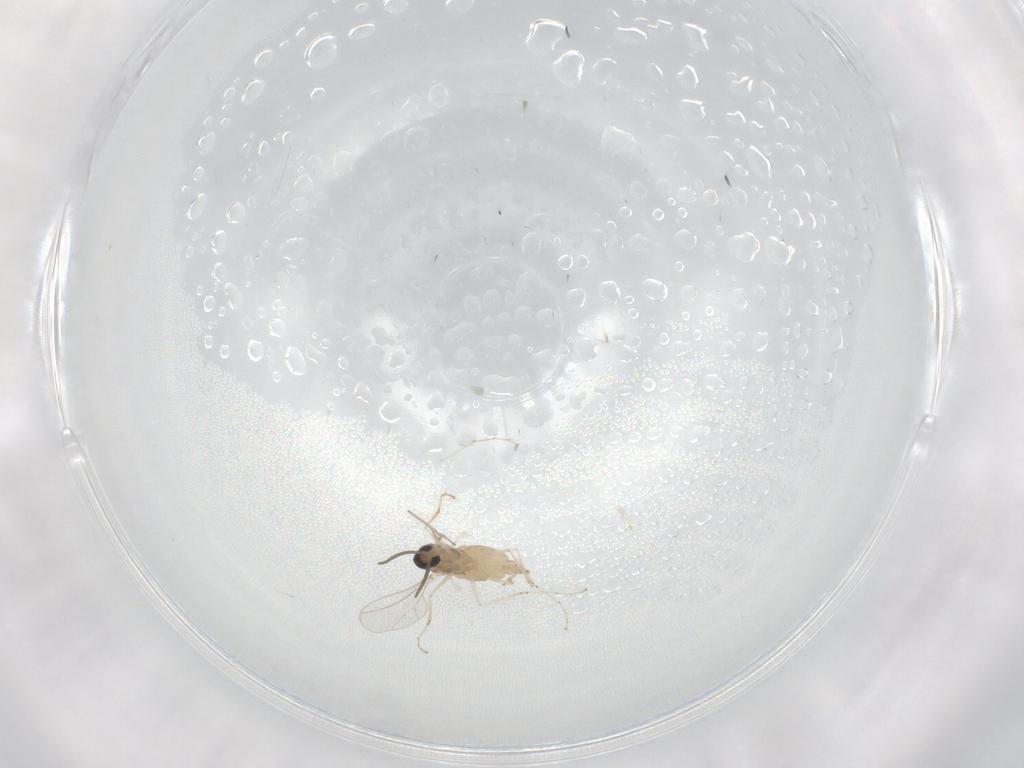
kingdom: Animalia
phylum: Arthropoda
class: Insecta
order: Diptera
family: Cecidomyiidae
